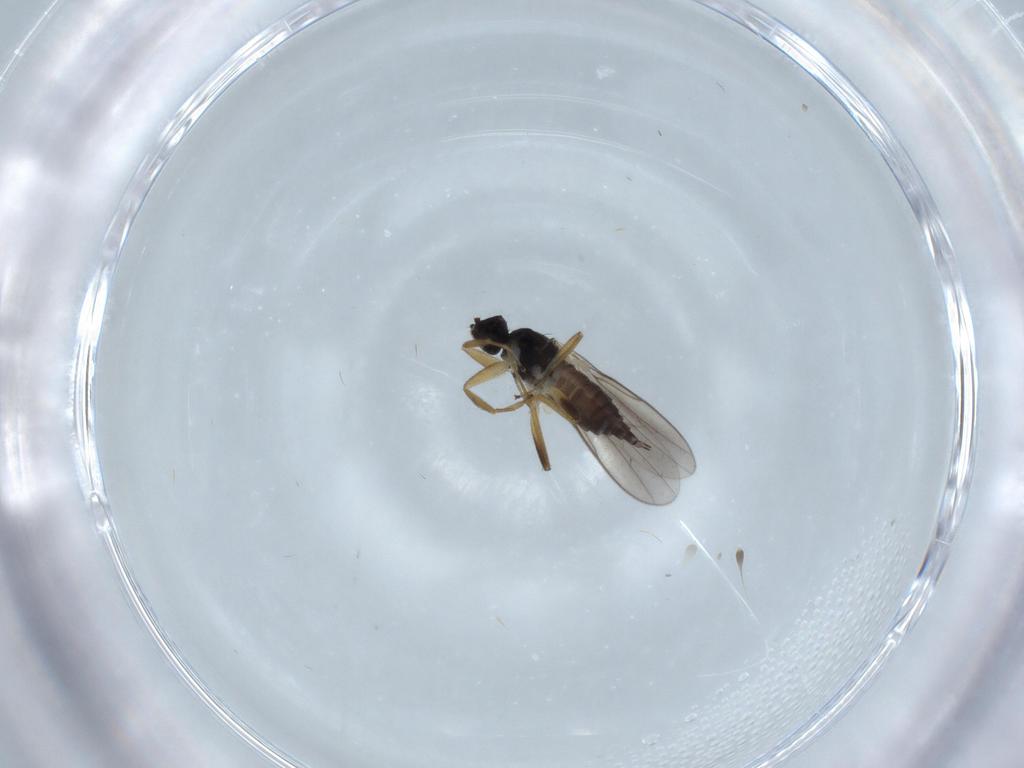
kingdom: Animalia
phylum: Arthropoda
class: Insecta
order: Diptera
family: Hybotidae
